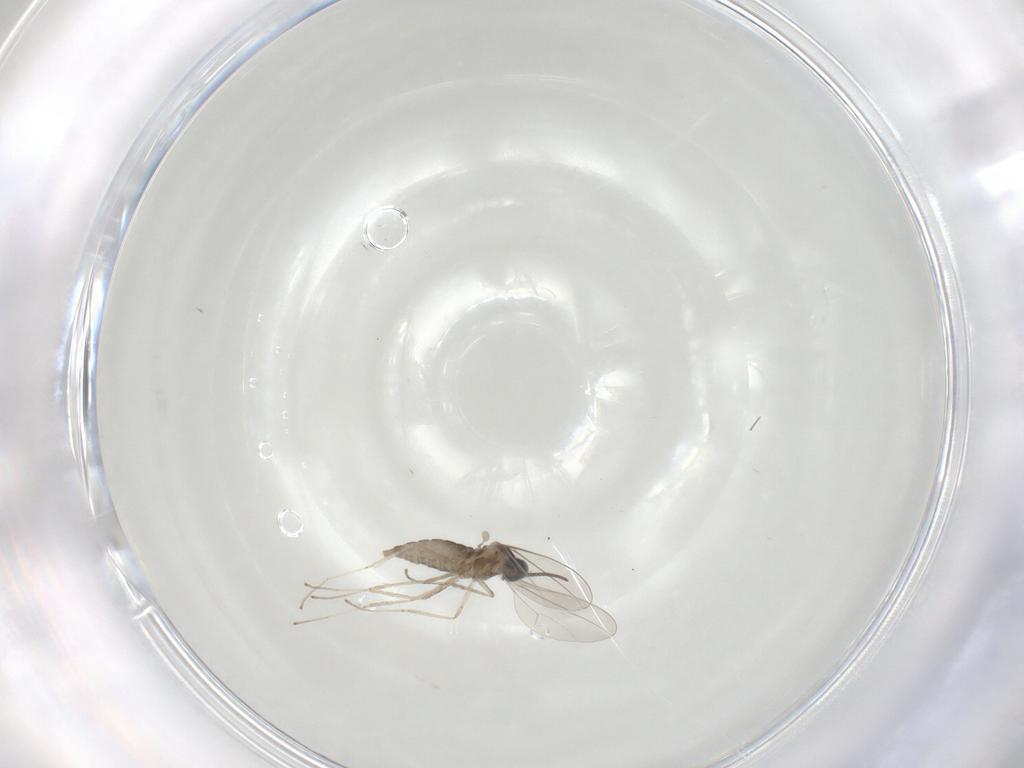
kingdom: Animalia
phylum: Arthropoda
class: Insecta
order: Diptera
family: Cecidomyiidae
